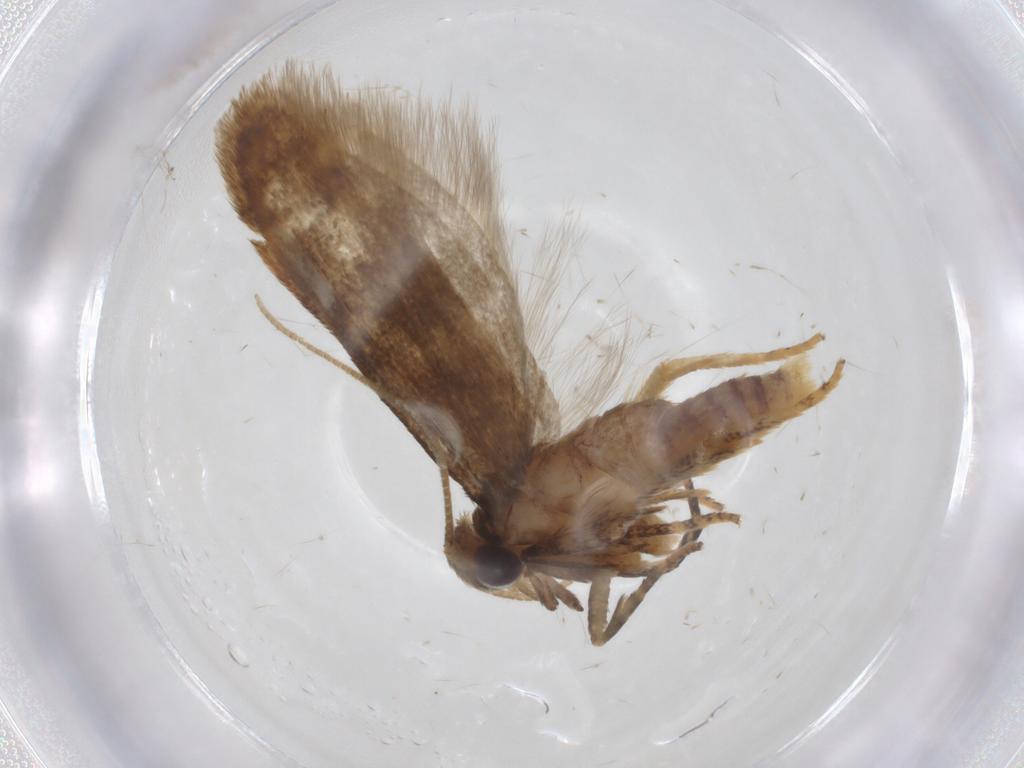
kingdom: Animalia
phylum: Arthropoda
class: Insecta
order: Lepidoptera
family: Blastobasidae
